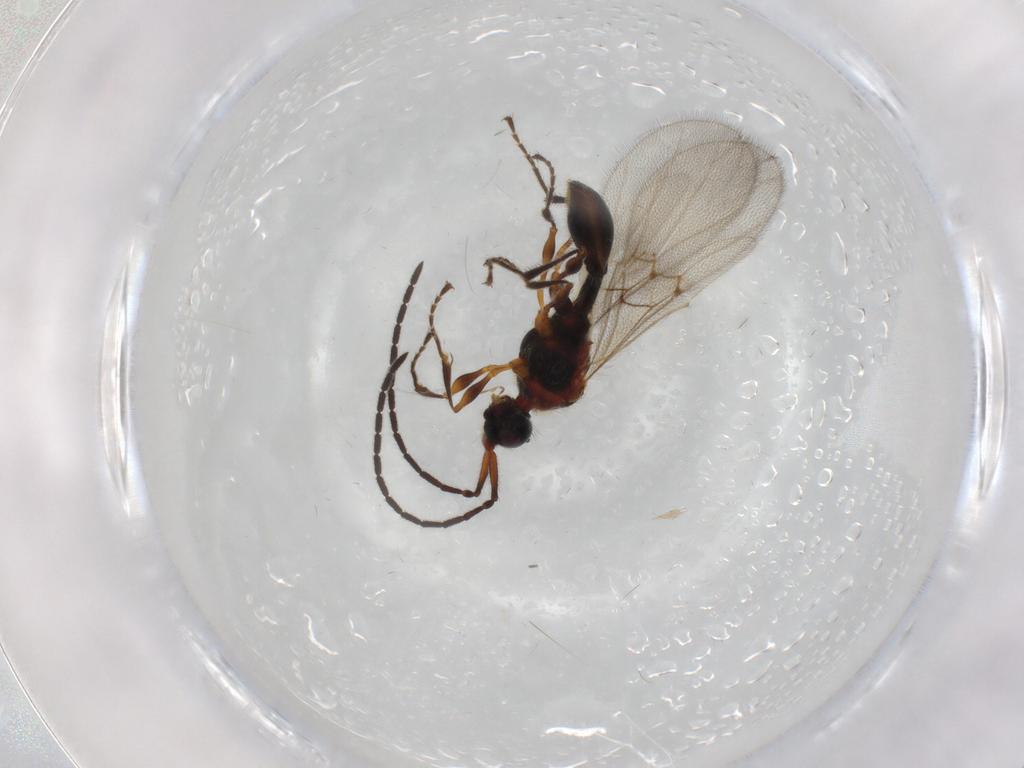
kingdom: Animalia
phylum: Arthropoda
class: Insecta
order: Hymenoptera
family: Diapriidae
